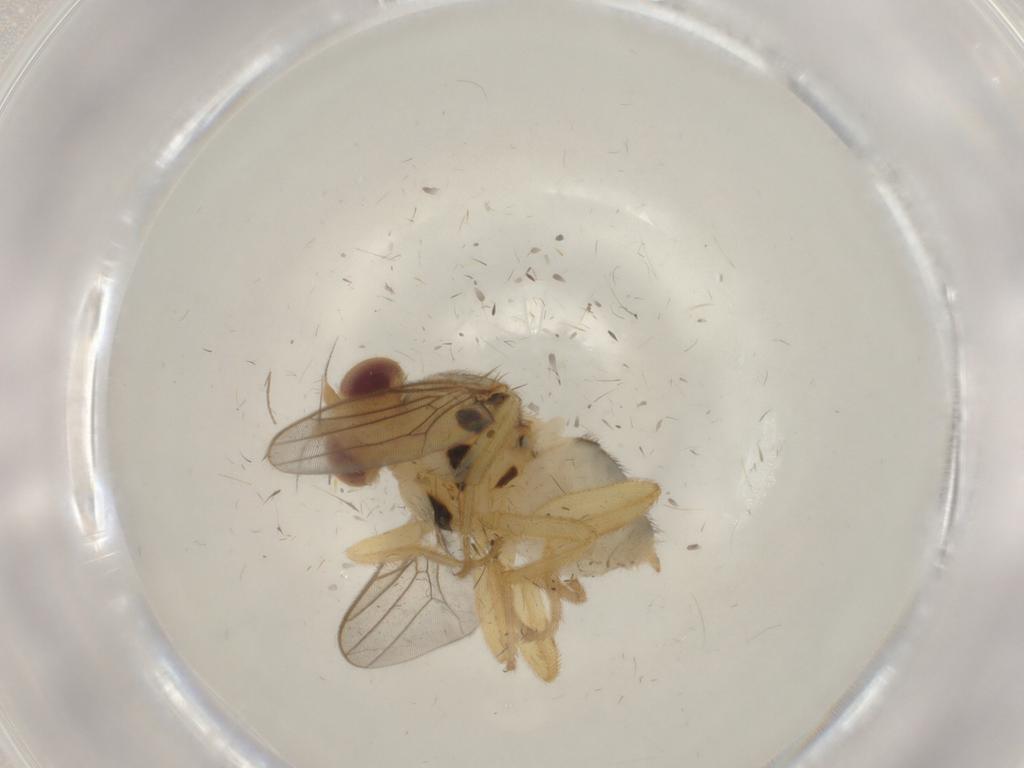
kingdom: Animalia
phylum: Arthropoda
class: Insecta
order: Diptera
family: Chloropidae
